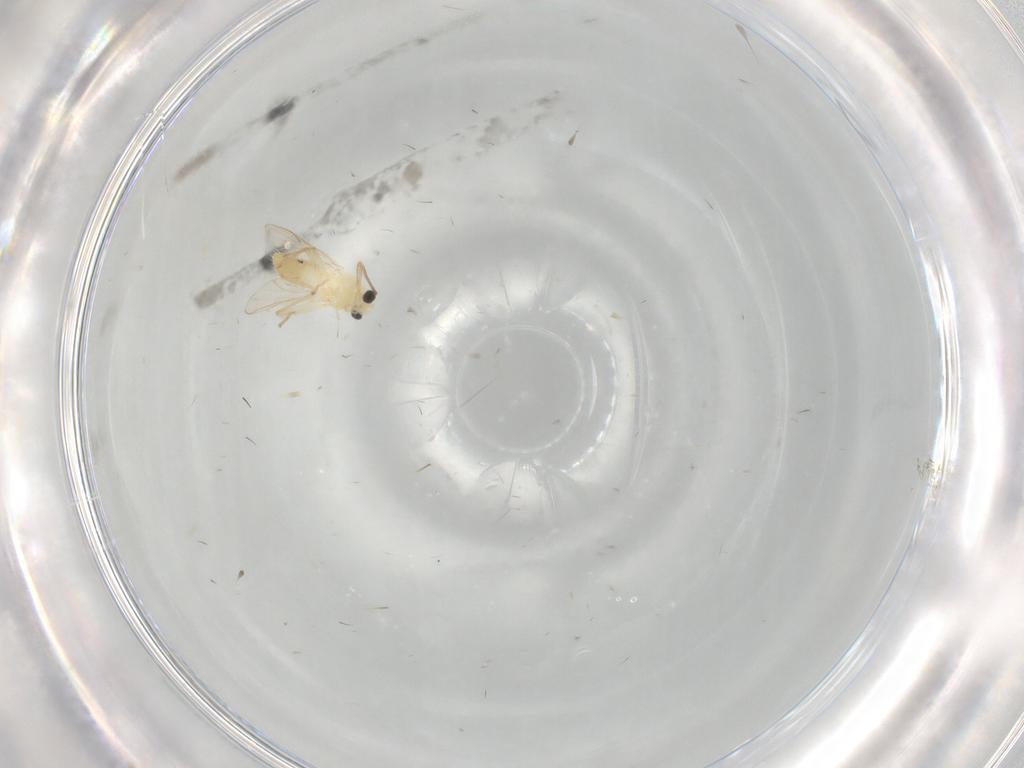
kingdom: Animalia
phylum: Arthropoda
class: Insecta
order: Diptera
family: Chironomidae
